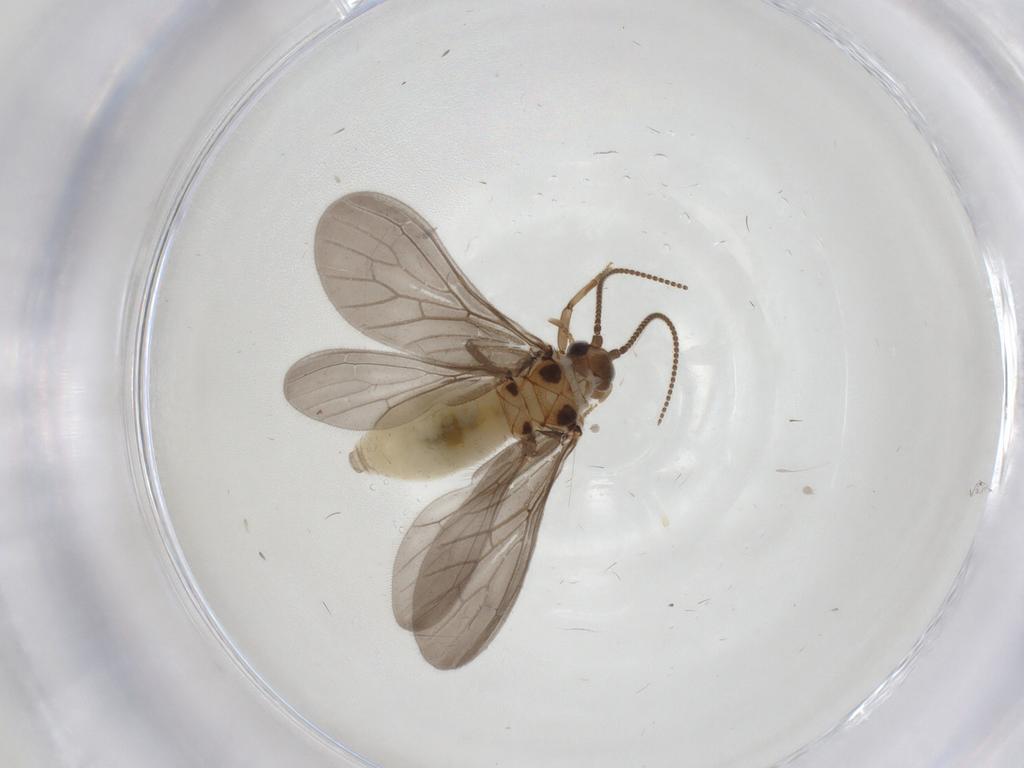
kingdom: Animalia
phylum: Arthropoda
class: Insecta
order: Neuroptera
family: Coniopterygidae
